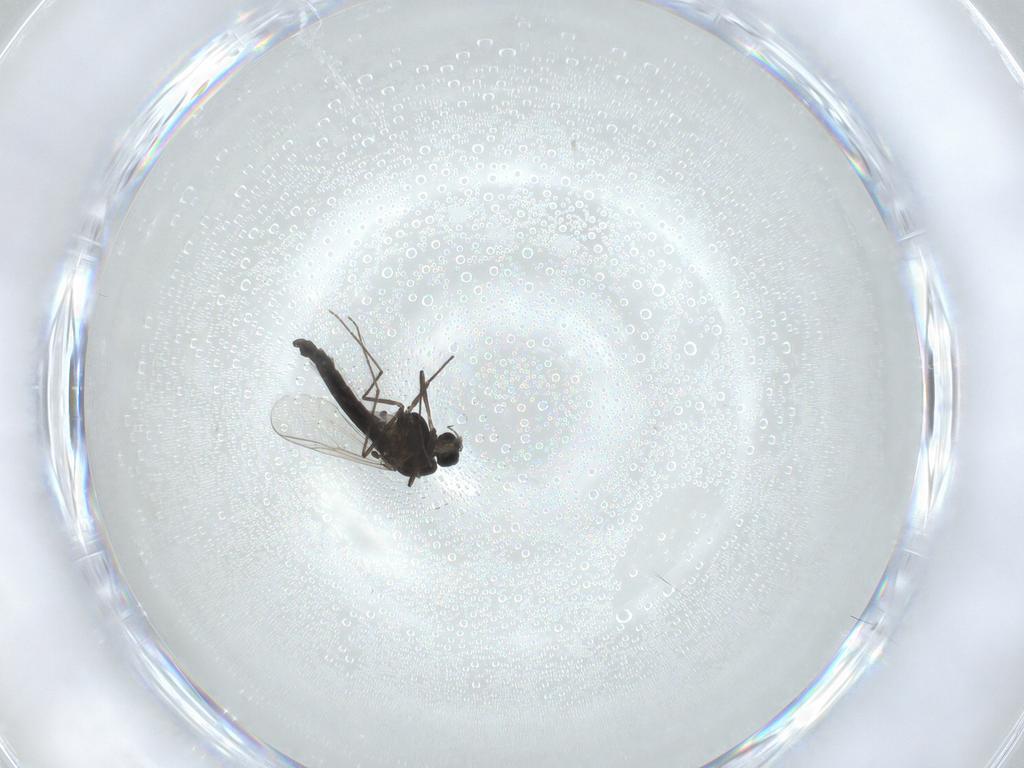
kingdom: Animalia
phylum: Arthropoda
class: Insecta
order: Diptera
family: Chironomidae
